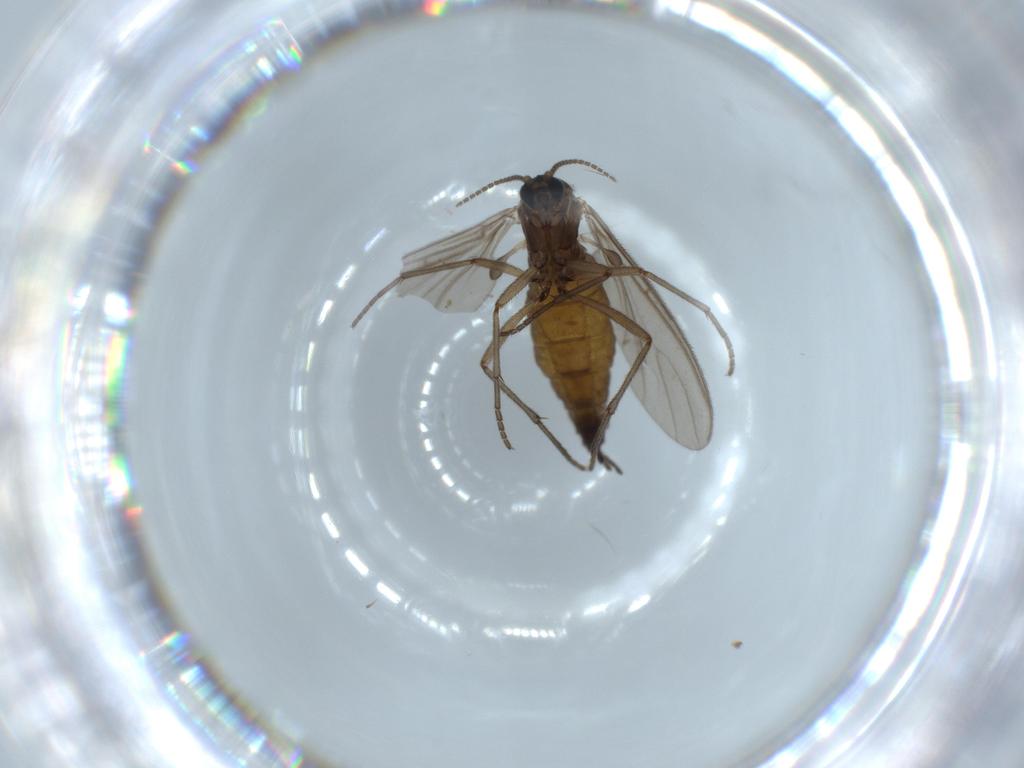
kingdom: Animalia
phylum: Arthropoda
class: Insecta
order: Diptera
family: Sciaridae
